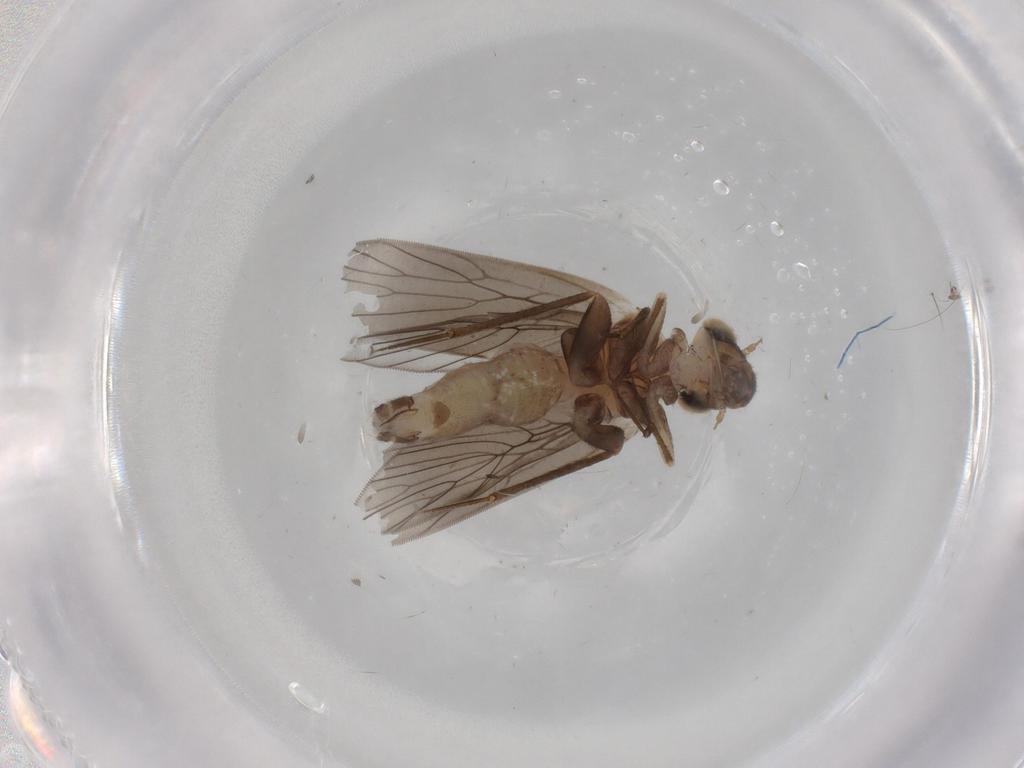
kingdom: Animalia
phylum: Arthropoda
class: Insecta
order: Psocodea
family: Lepidopsocidae
